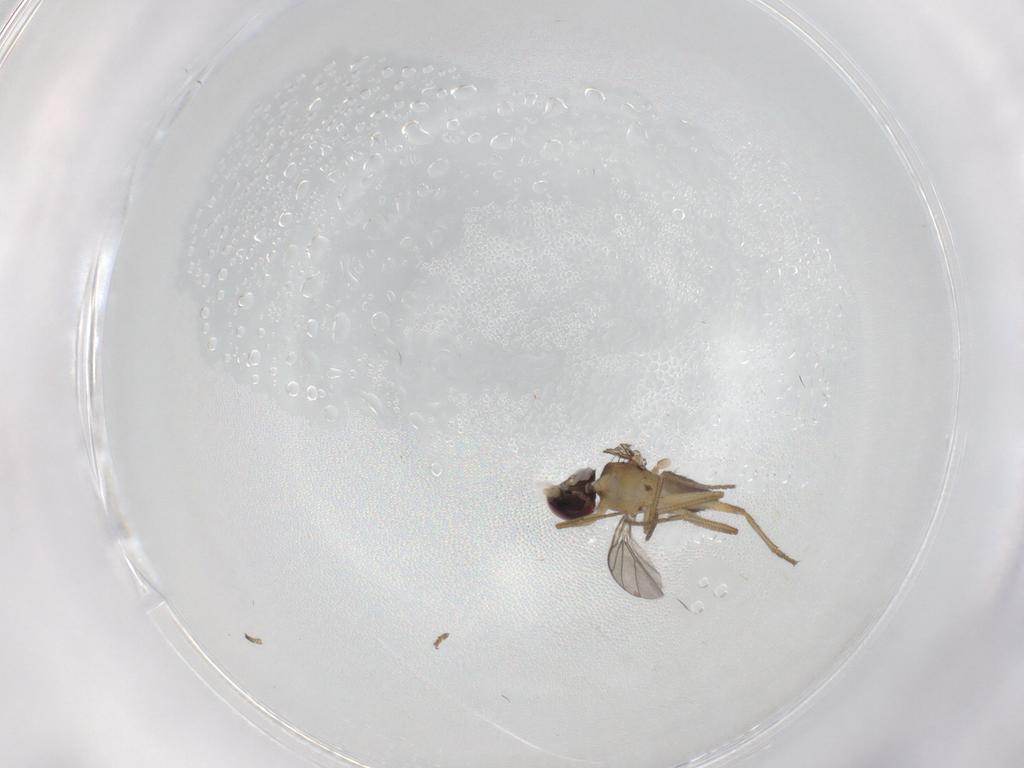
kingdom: Animalia
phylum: Arthropoda
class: Insecta
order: Diptera
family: Dolichopodidae
